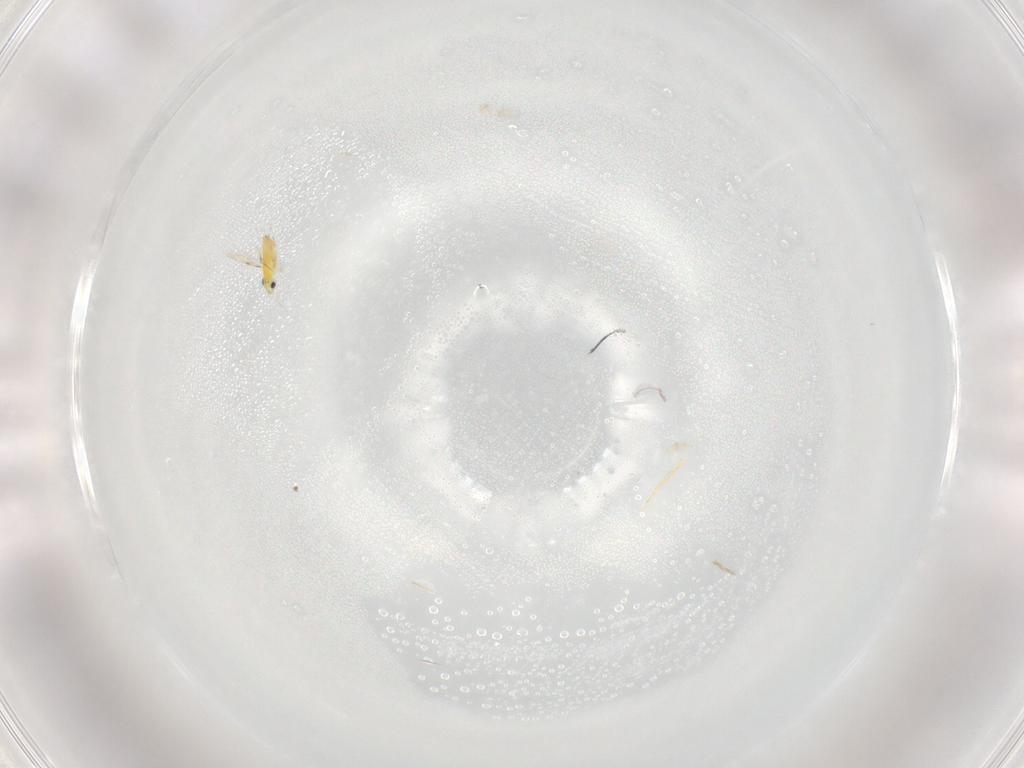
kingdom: Animalia
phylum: Arthropoda
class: Insecta
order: Hymenoptera
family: Trichogrammatidae
